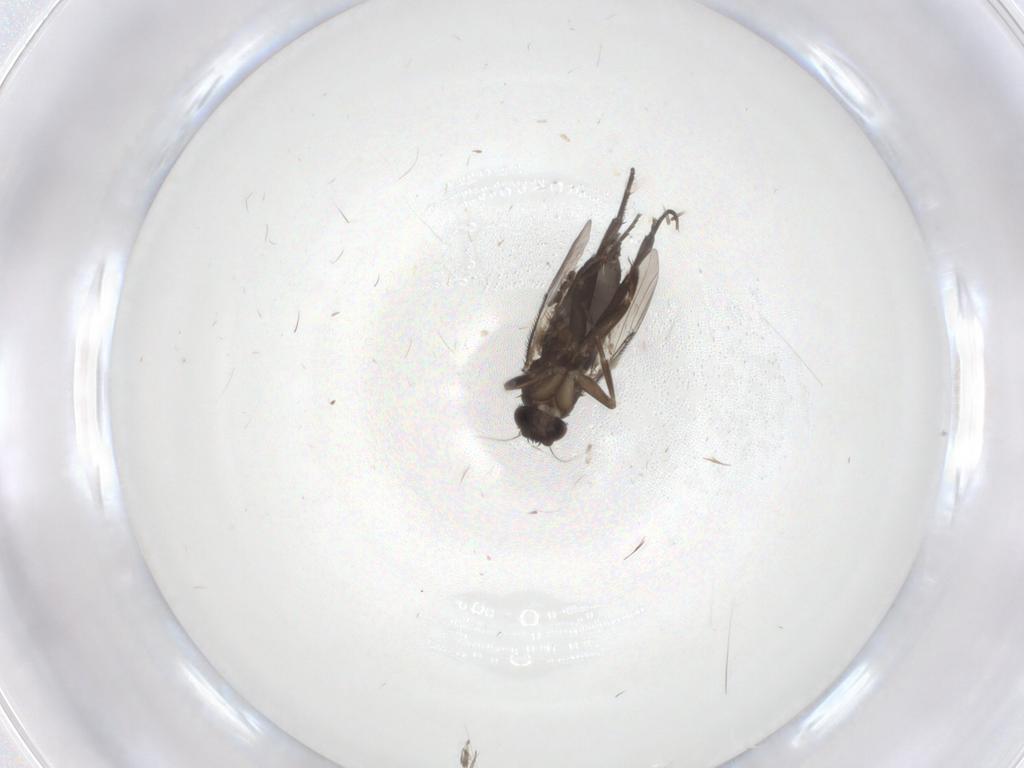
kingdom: Animalia
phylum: Arthropoda
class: Insecta
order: Diptera
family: Phoridae
